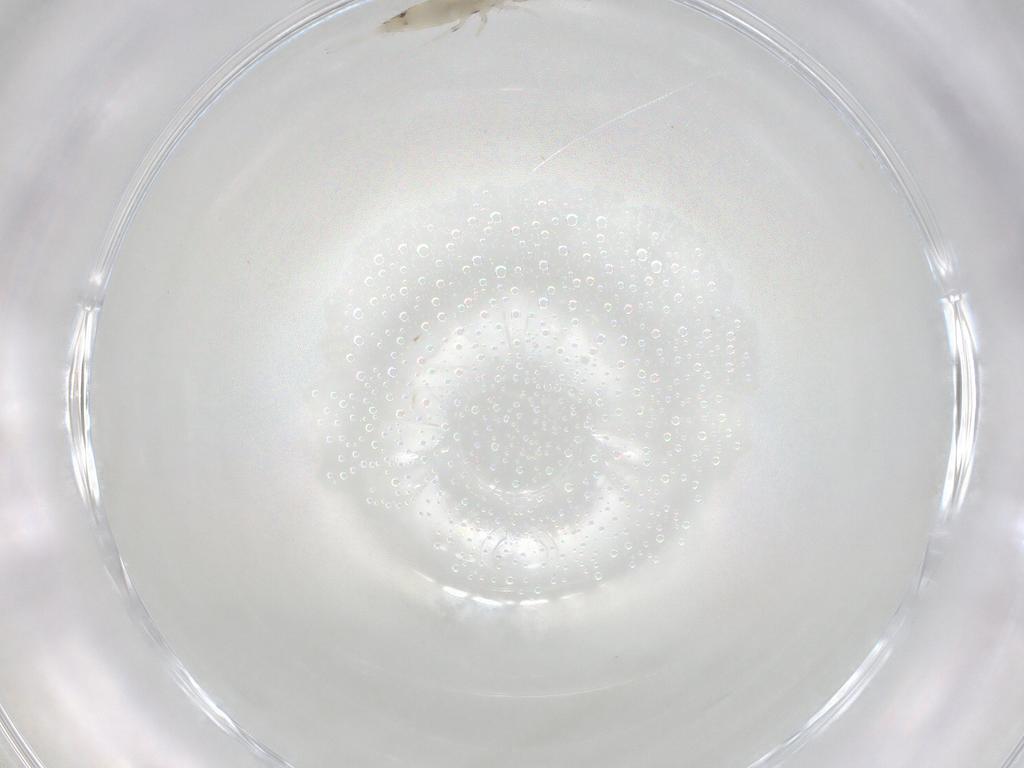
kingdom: Animalia
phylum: Arthropoda
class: Collembola
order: Entomobryomorpha
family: Entomobryidae
